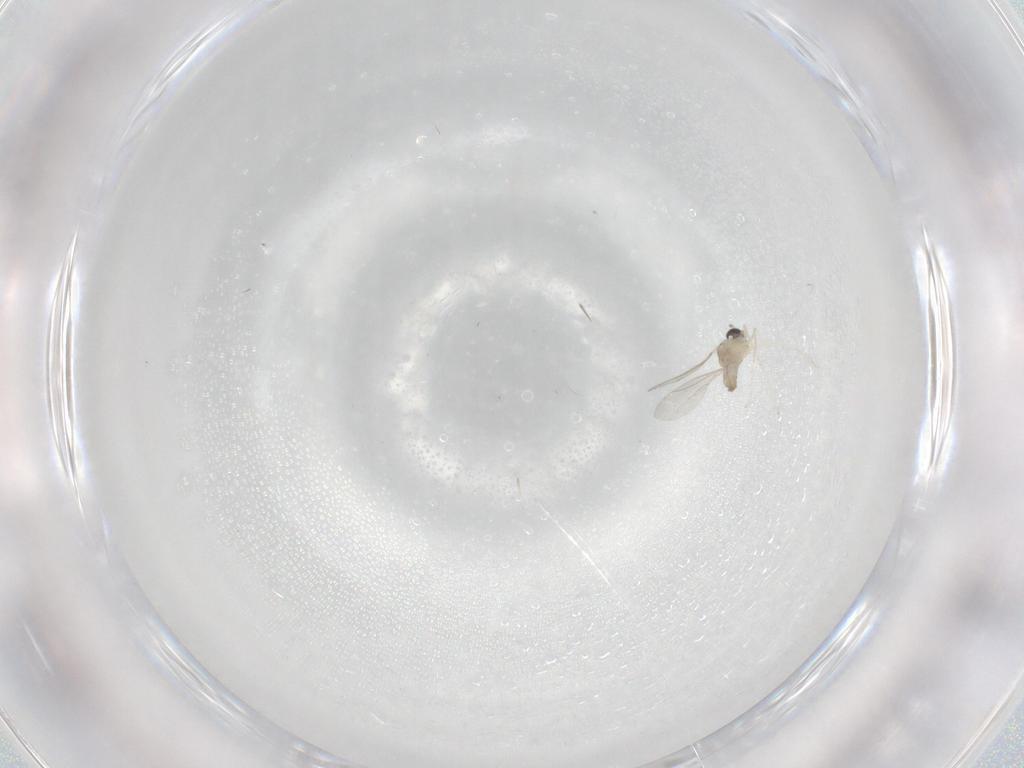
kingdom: Animalia
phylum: Arthropoda
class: Insecta
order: Diptera
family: Cecidomyiidae
